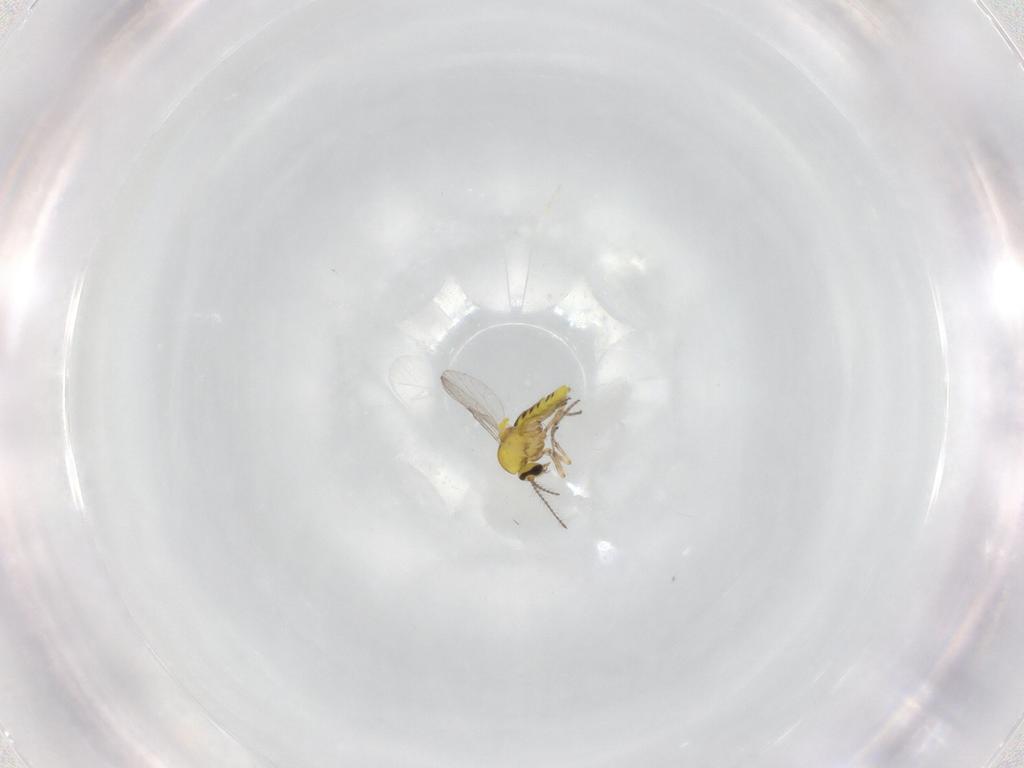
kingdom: Animalia
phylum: Arthropoda
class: Insecta
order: Diptera
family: Ceratopogonidae
